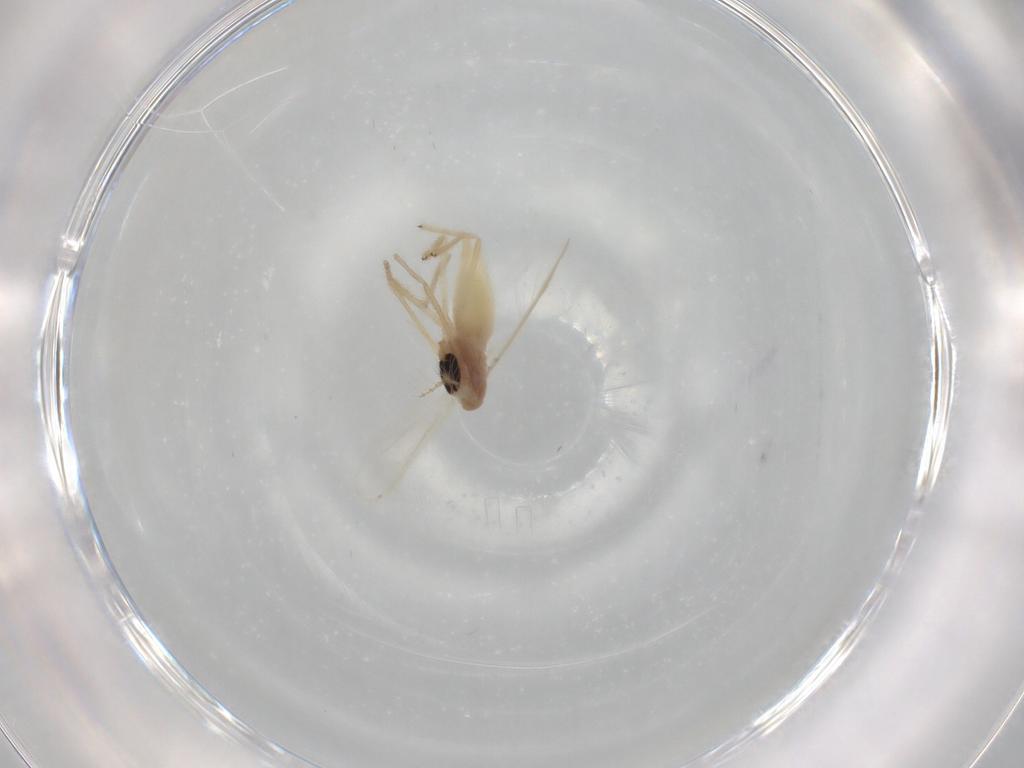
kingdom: Animalia
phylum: Arthropoda
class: Insecta
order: Diptera
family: Chironomidae
